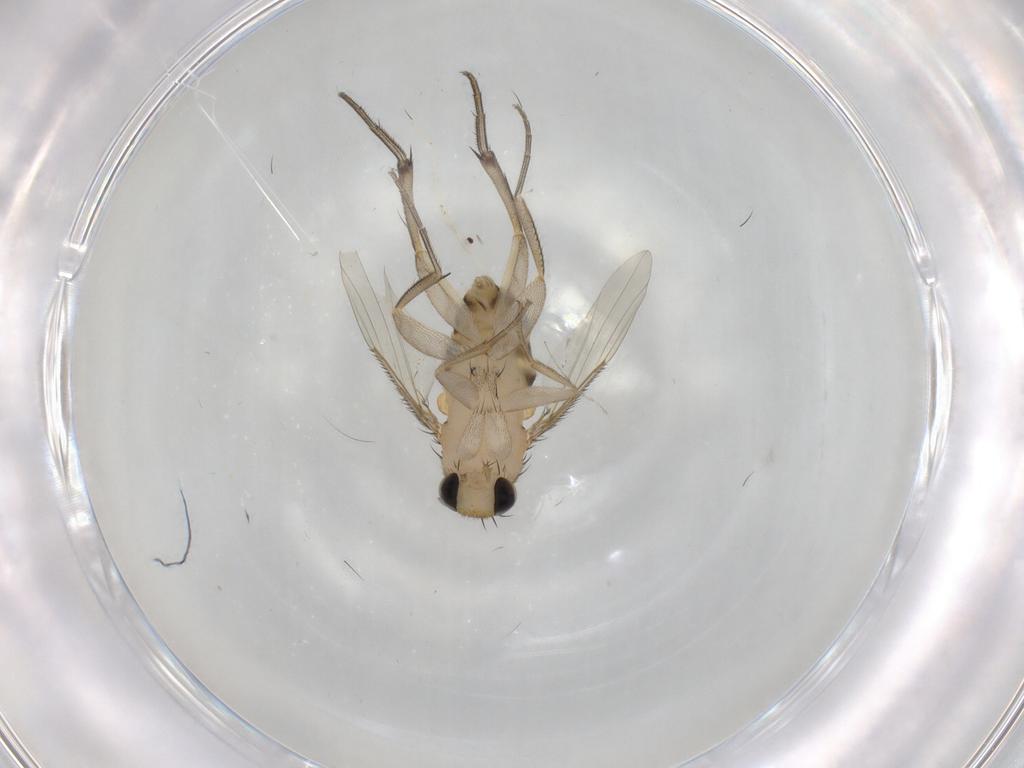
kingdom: Animalia
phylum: Arthropoda
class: Insecta
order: Diptera
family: Phoridae
